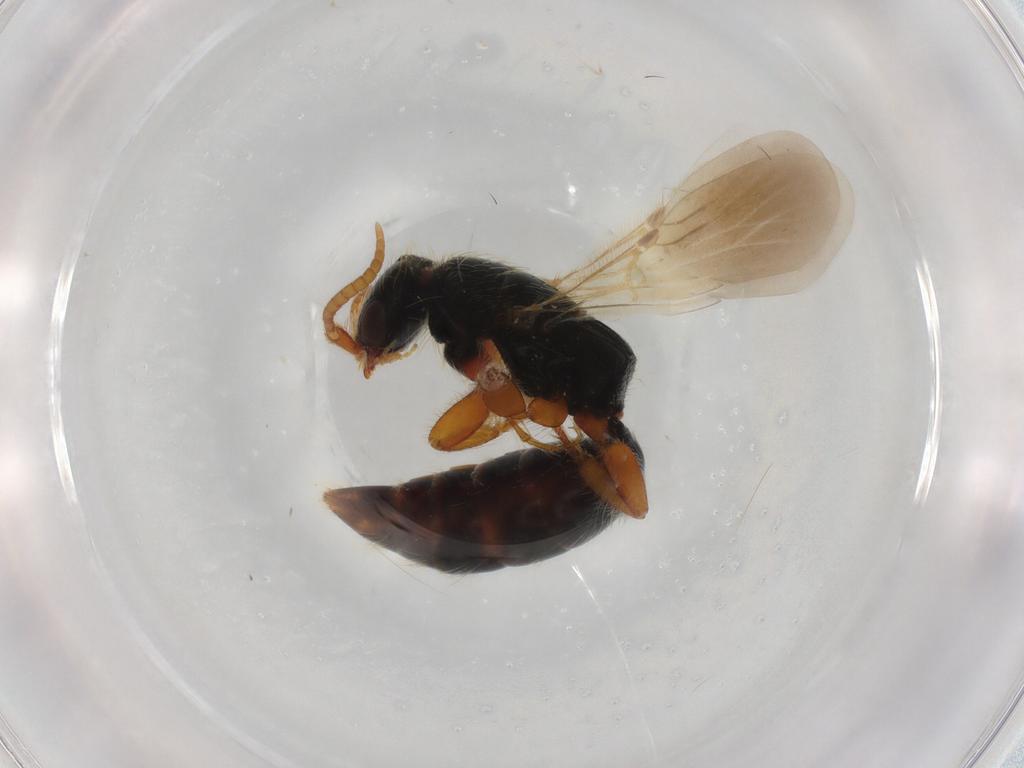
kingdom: Animalia
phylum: Arthropoda
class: Insecta
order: Hymenoptera
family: Bethylidae
